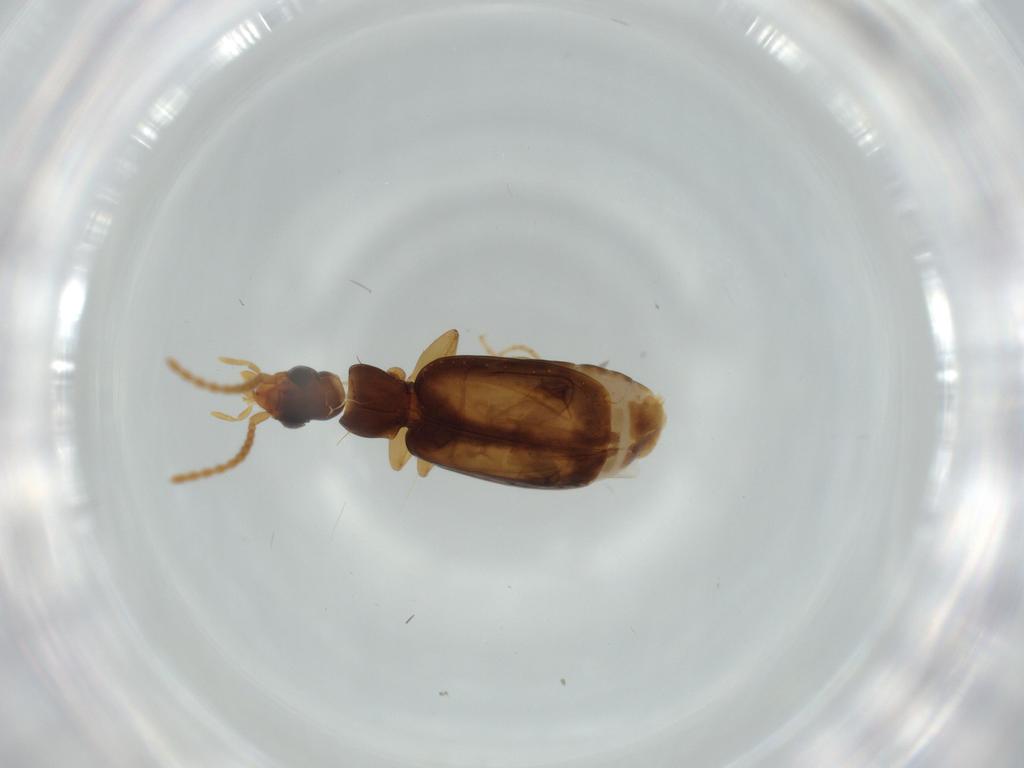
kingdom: Animalia
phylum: Arthropoda
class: Insecta
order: Coleoptera
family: Carabidae
